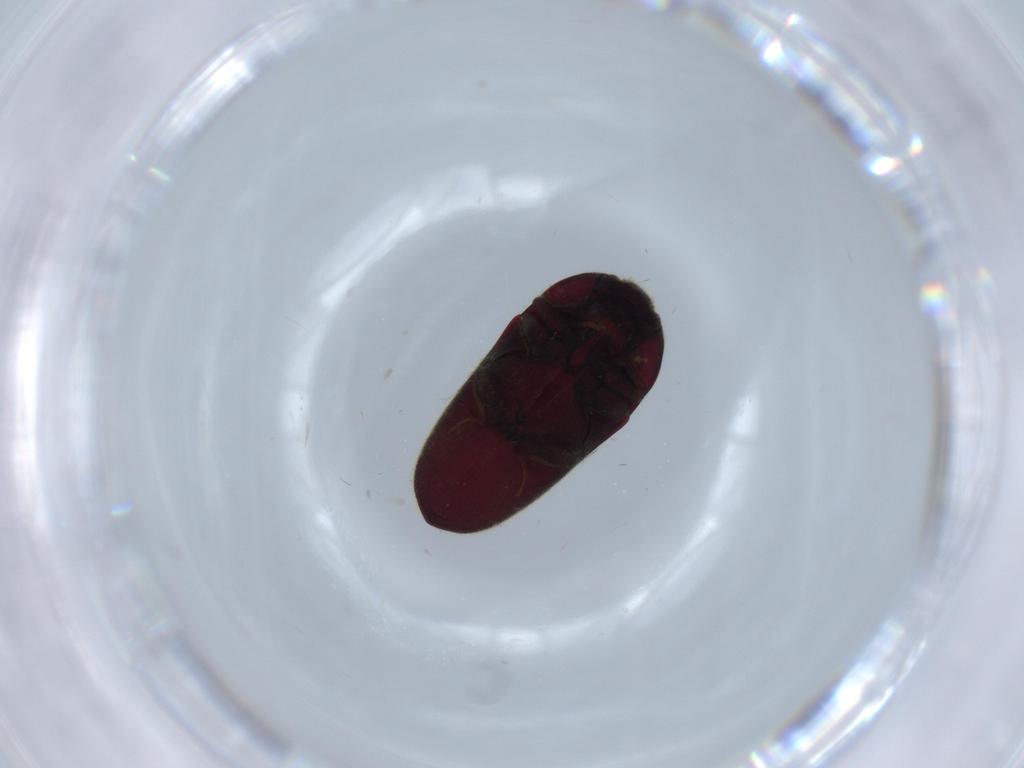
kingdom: Animalia
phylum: Arthropoda
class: Insecta
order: Coleoptera
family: Throscidae
